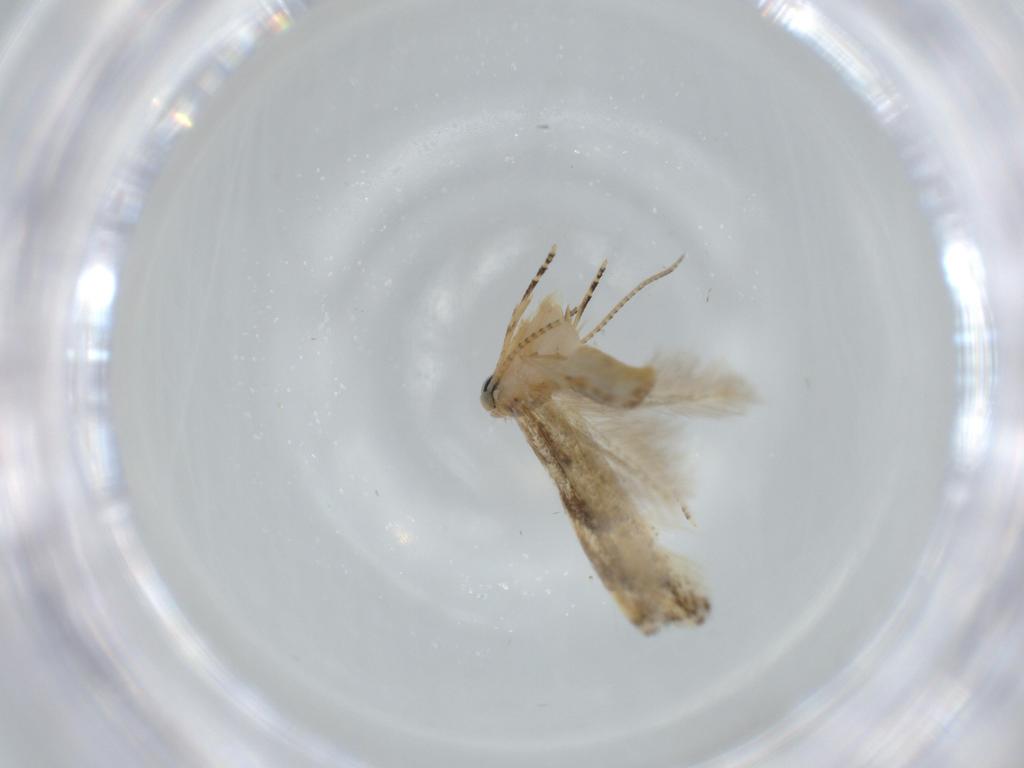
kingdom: Animalia
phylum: Arthropoda
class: Insecta
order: Lepidoptera
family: Bucculatricidae
